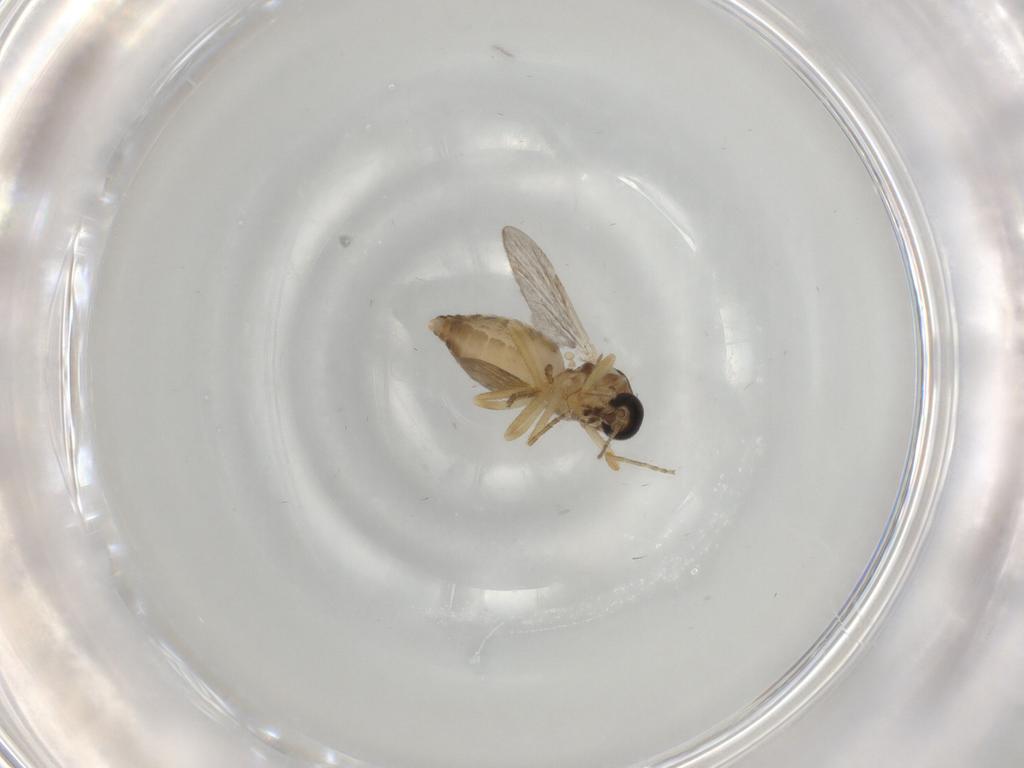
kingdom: Animalia
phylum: Arthropoda
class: Insecta
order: Diptera
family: Ceratopogonidae
